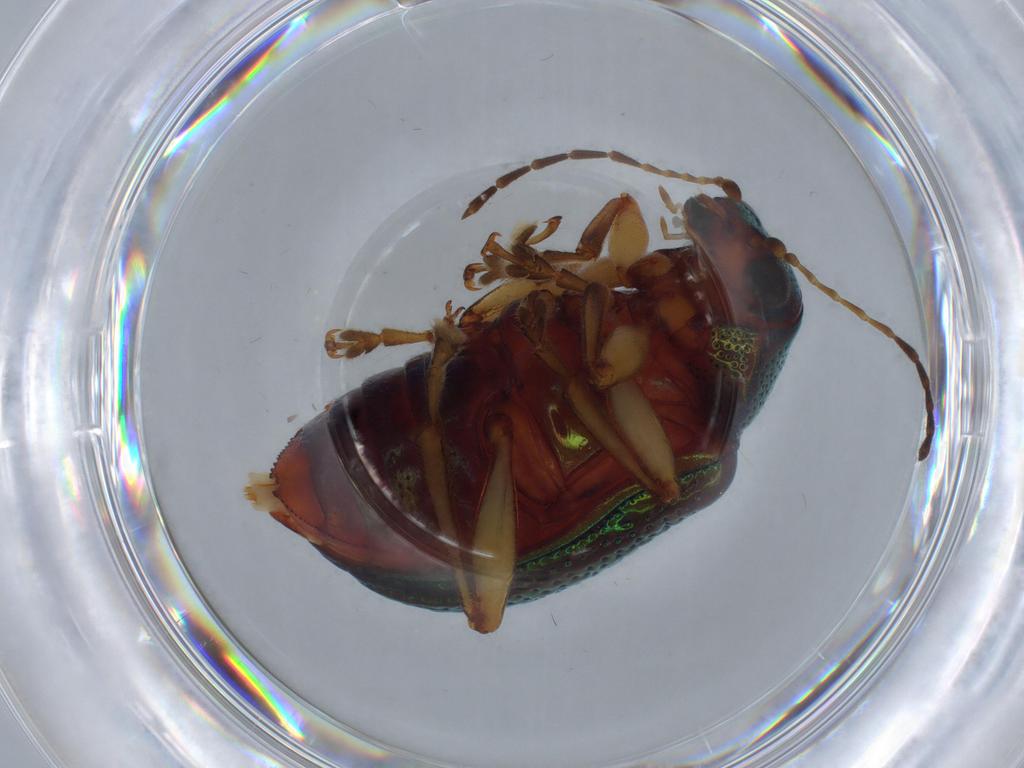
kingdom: Animalia
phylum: Arthropoda
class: Insecta
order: Coleoptera
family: Chrysomelidae
